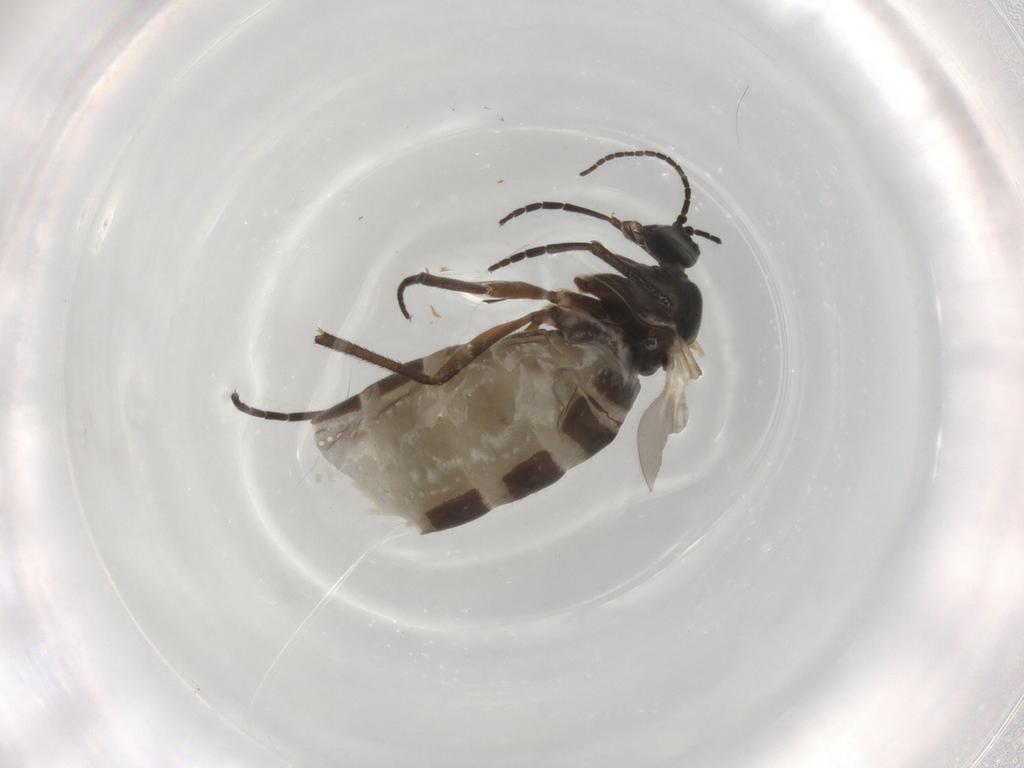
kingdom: Animalia
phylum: Arthropoda
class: Insecta
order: Diptera
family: Sciaridae
